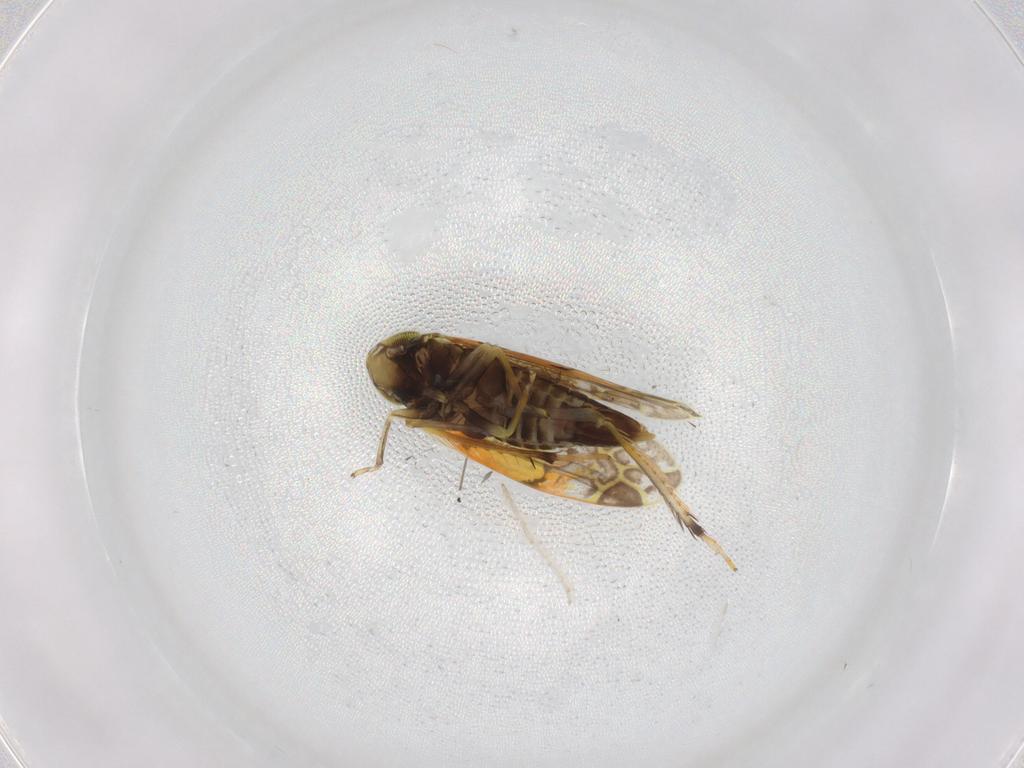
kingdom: Animalia
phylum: Arthropoda
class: Insecta
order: Hemiptera
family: Cicadellidae
